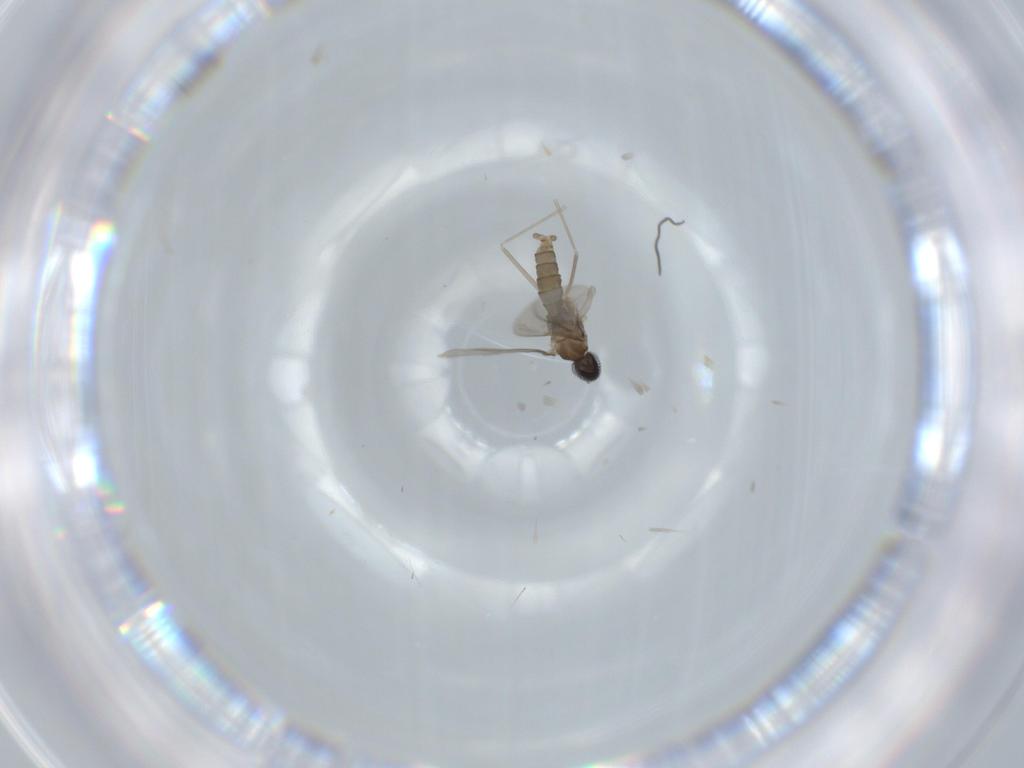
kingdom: Animalia
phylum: Arthropoda
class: Insecta
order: Diptera
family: Cecidomyiidae
